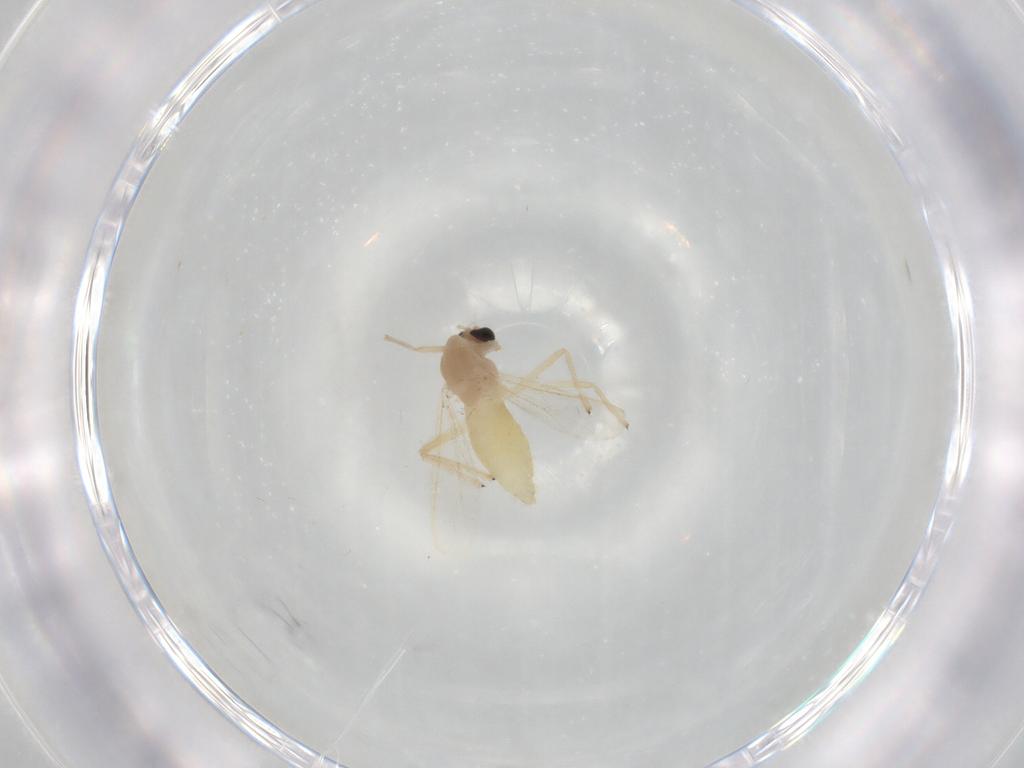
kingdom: Animalia
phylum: Arthropoda
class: Insecta
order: Diptera
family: Chironomidae
